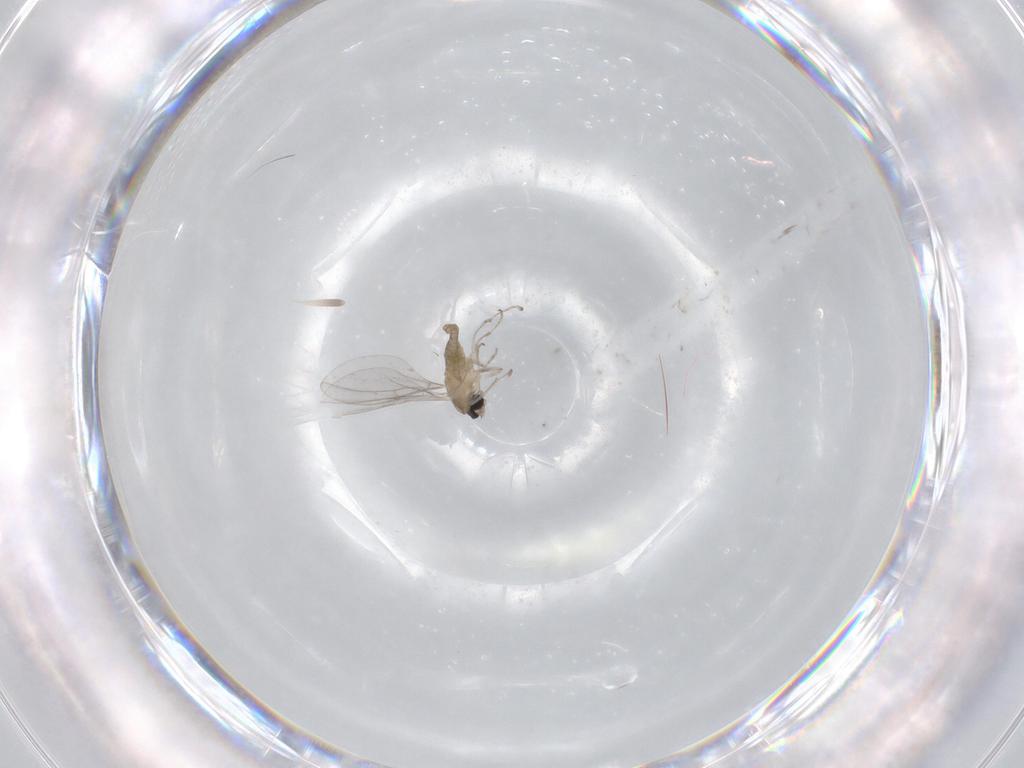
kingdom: Animalia
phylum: Arthropoda
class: Insecta
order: Diptera
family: Cecidomyiidae
